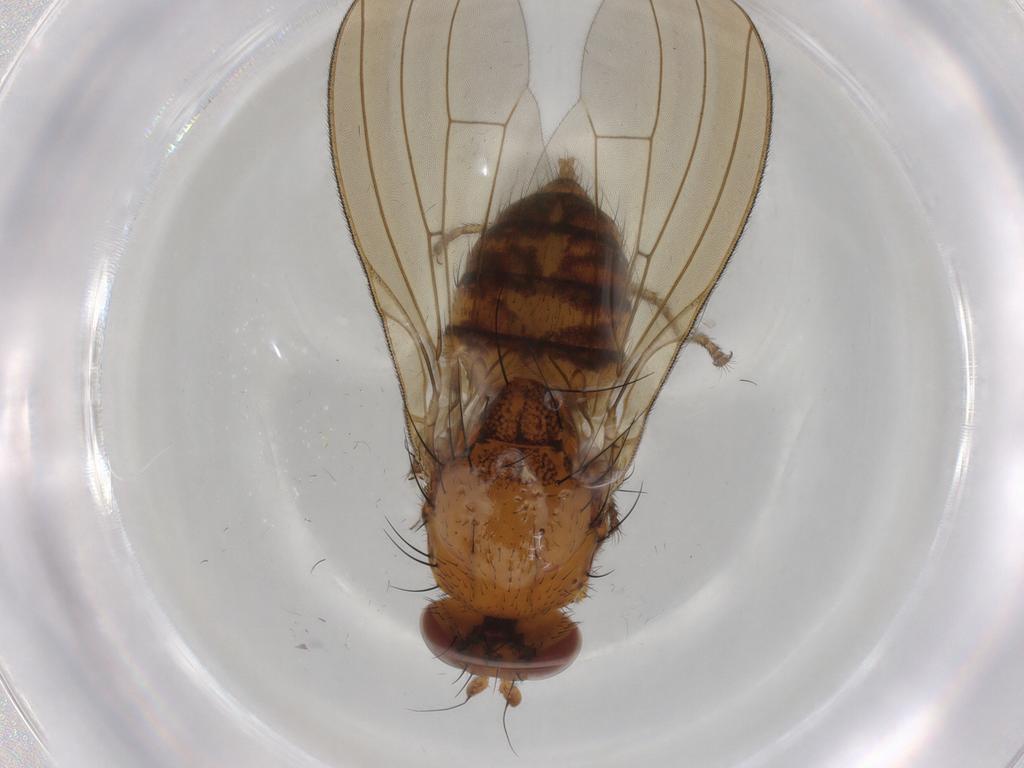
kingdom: Animalia
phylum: Arthropoda
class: Insecta
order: Diptera
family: Lauxaniidae
